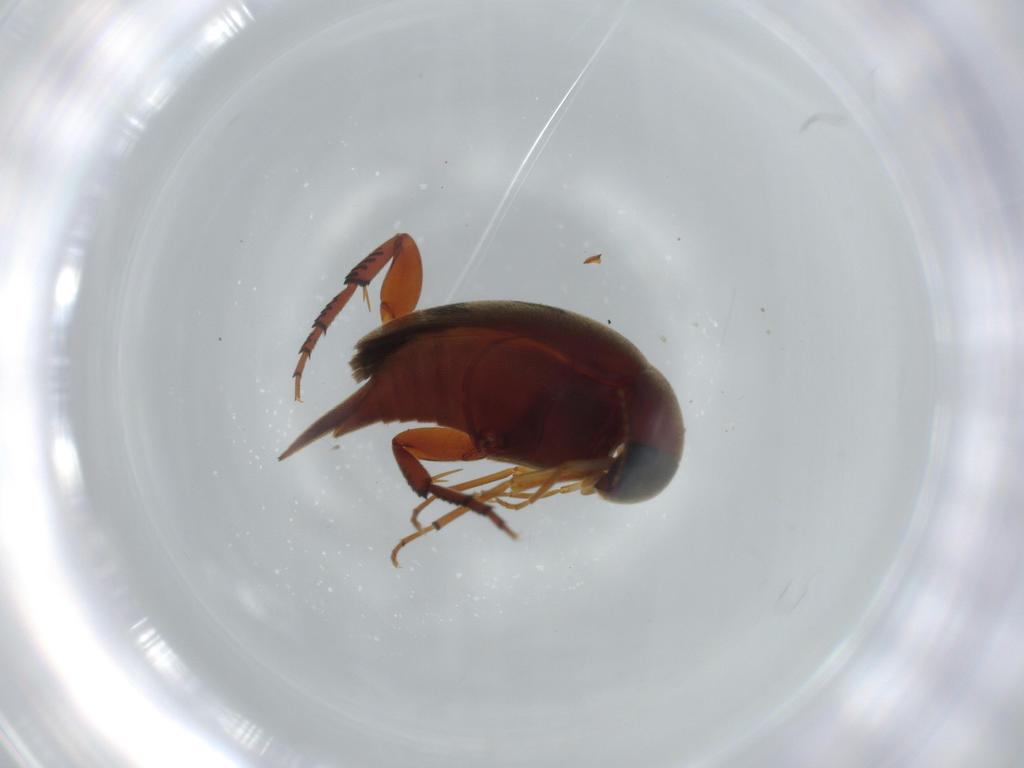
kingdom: Animalia
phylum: Arthropoda
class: Insecta
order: Coleoptera
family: Mordellidae
